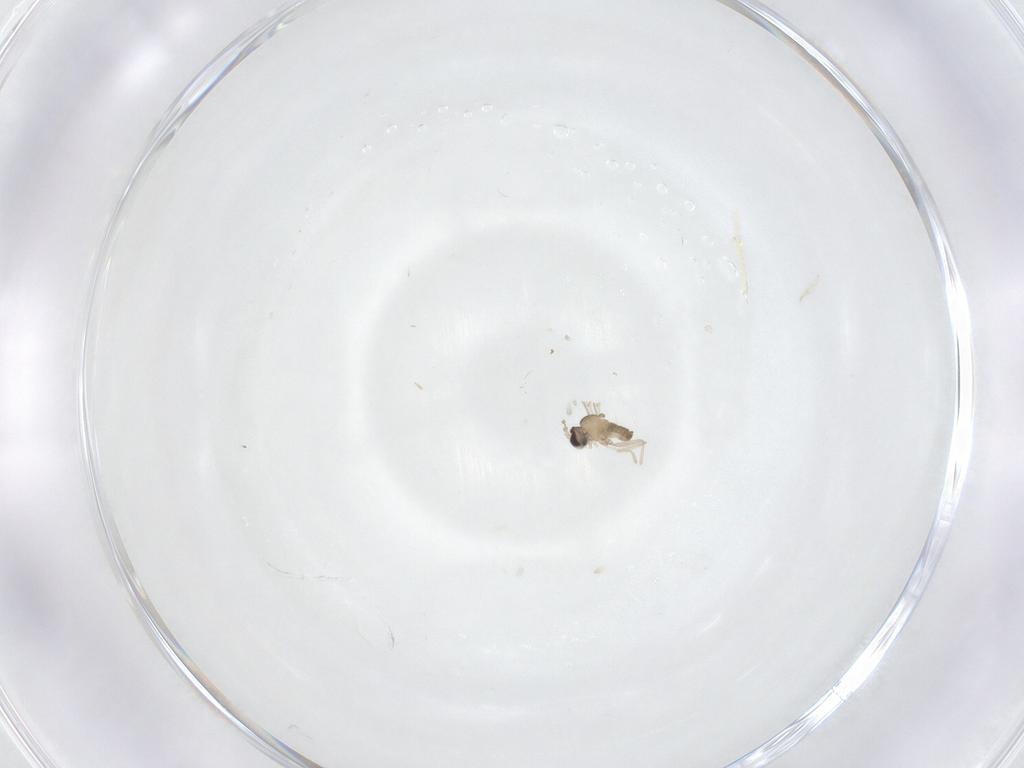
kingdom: Animalia
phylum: Arthropoda
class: Insecta
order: Diptera
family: Cecidomyiidae
